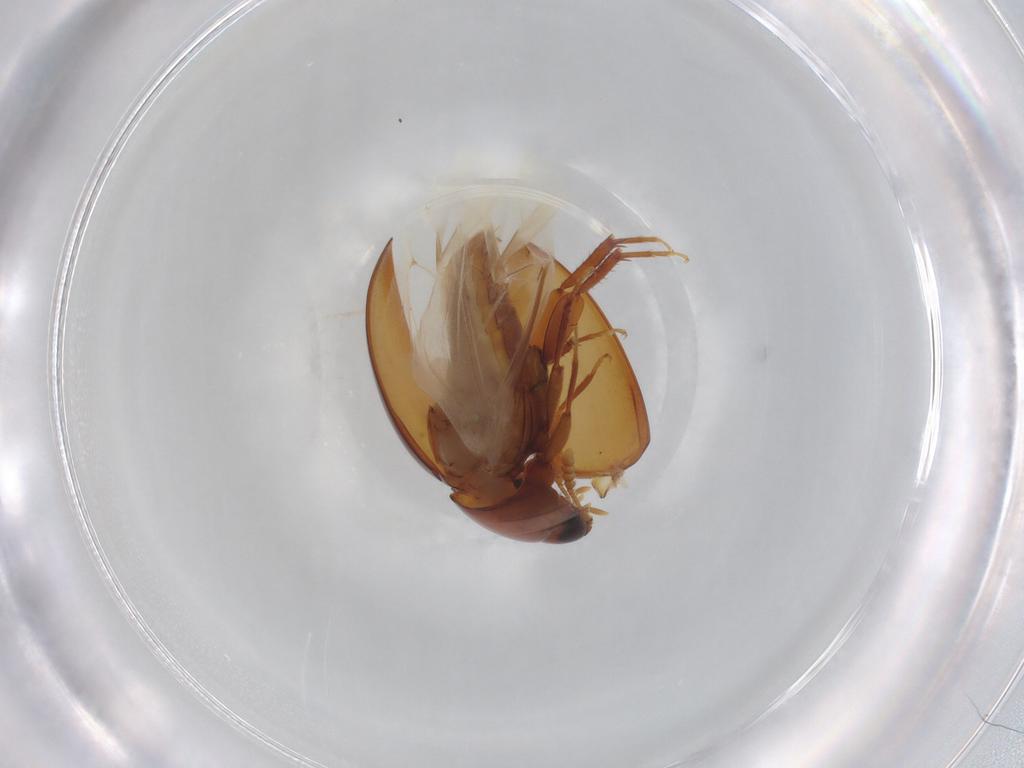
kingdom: Animalia
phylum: Arthropoda
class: Insecta
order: Coleoptera
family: Phalacridae
